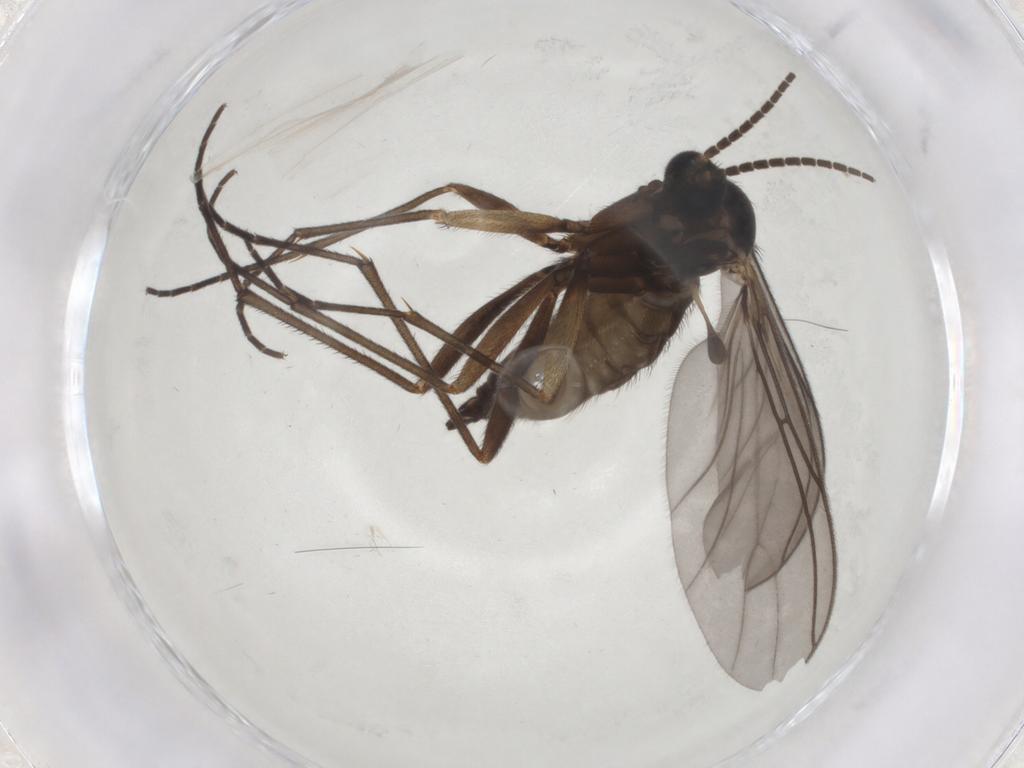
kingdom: Animalia
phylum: Arthropoda
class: Insecta
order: Diptera
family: Sciaridae
